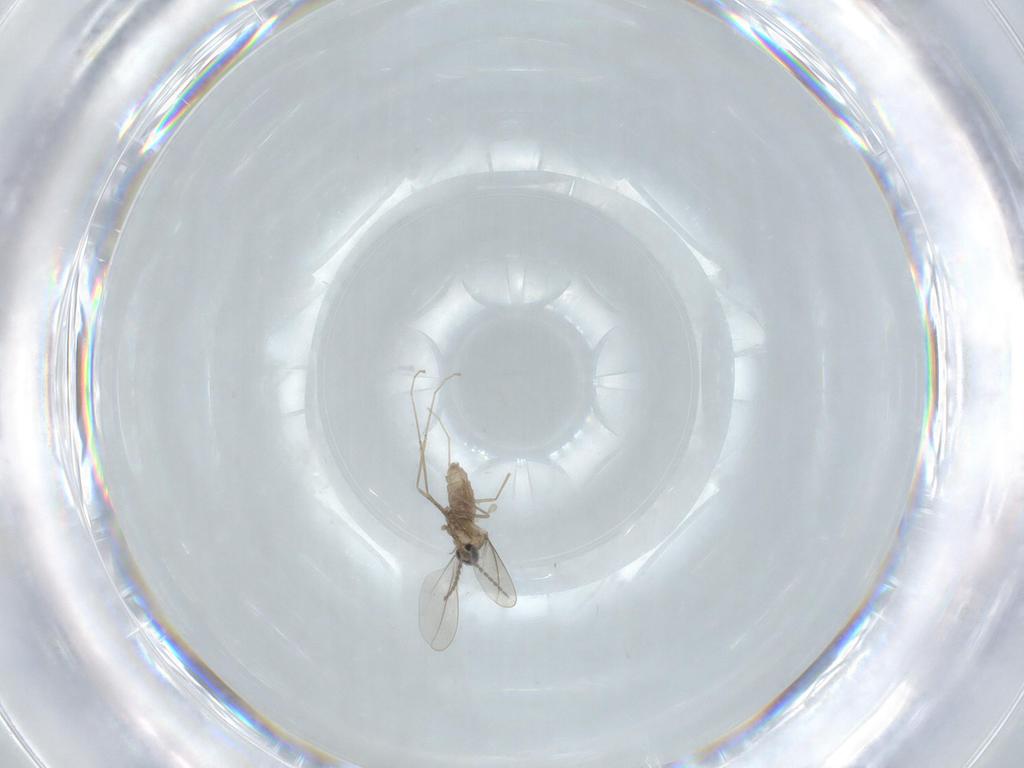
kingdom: Animalia
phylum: Arthropoda
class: Insecta
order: Diptera
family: Cecidomyiidae
